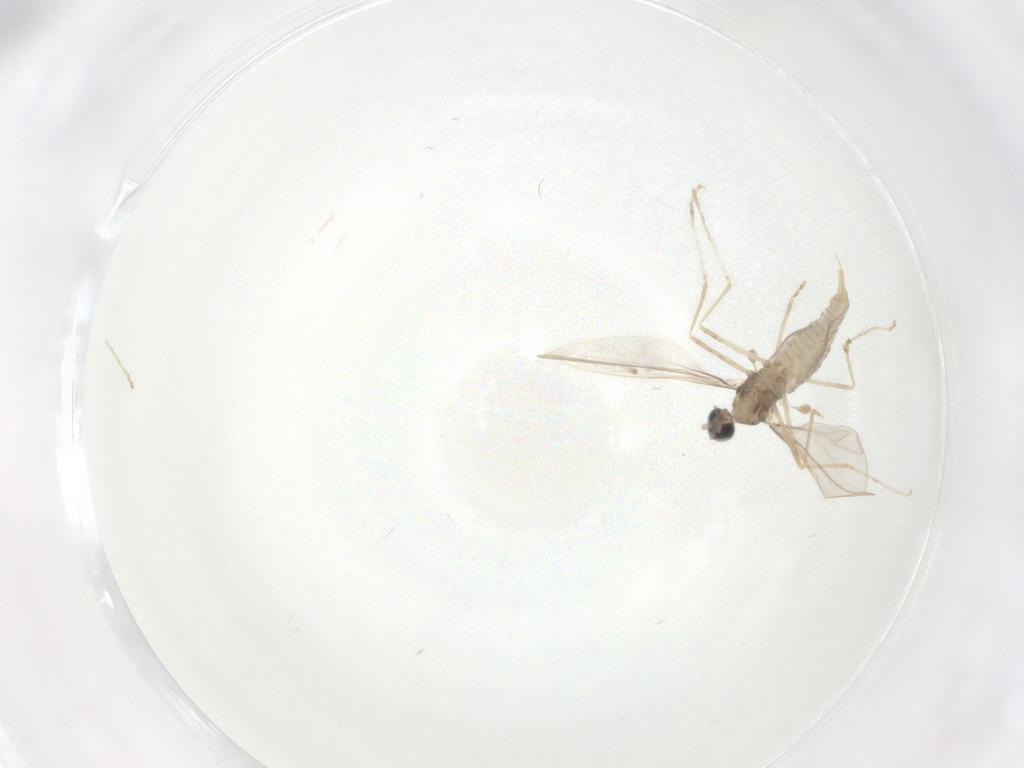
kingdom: Animalia
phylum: Arthropoda
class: Insecta
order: Diptera
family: Cecidomyiidae
